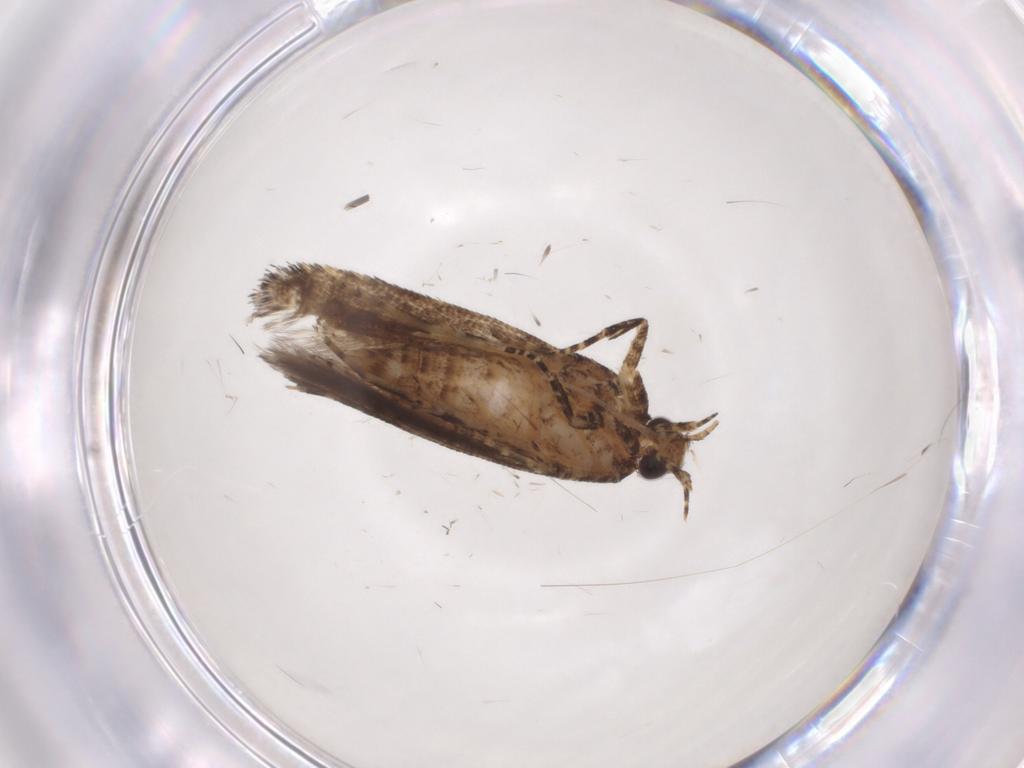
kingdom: Animalia
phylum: Arthropoda
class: Insecta
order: Lepidoptera
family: Gelechiidae
